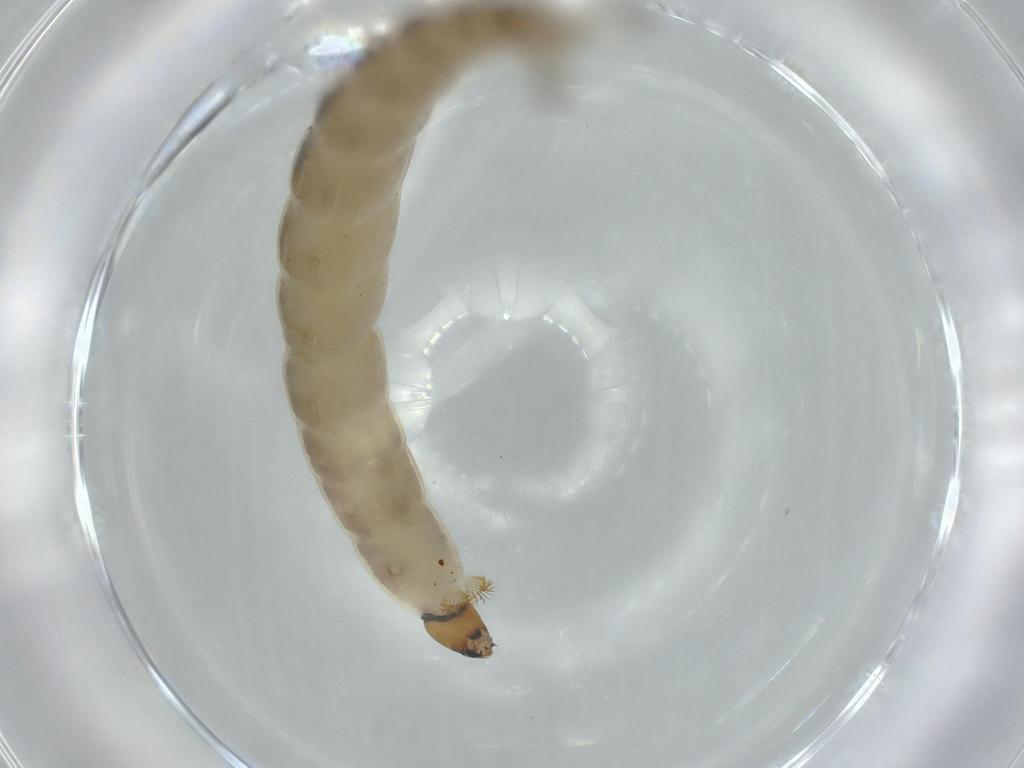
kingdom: Animalia
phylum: Arthropoda
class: Insecta
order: Diptera
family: Chironomidae
